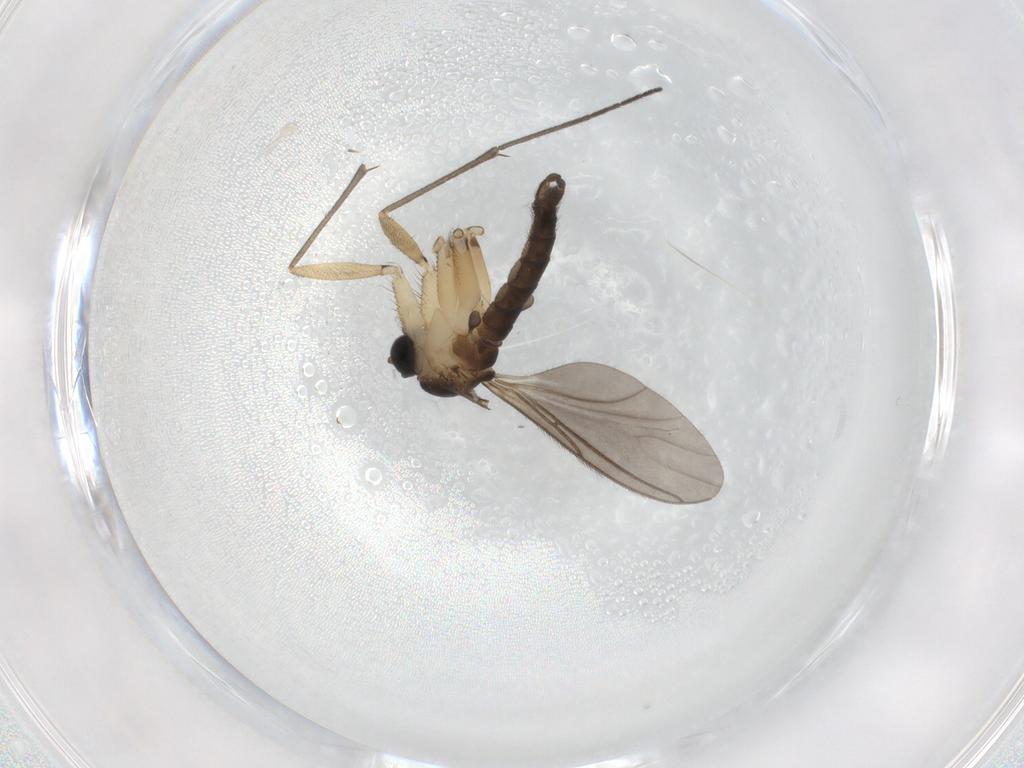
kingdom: Animalia
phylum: Arthropoda
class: Insecta
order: Diptera
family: Sciaridae
